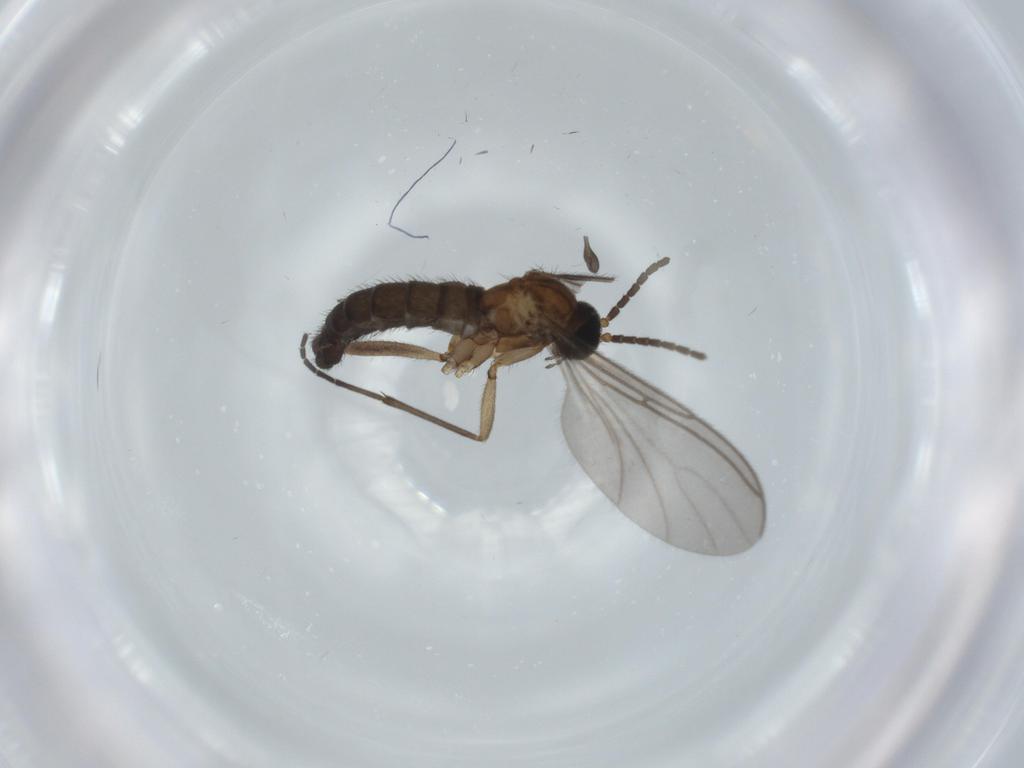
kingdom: Animalia
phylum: Arthropoda
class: Insecta
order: Diptera
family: Sciaridae
